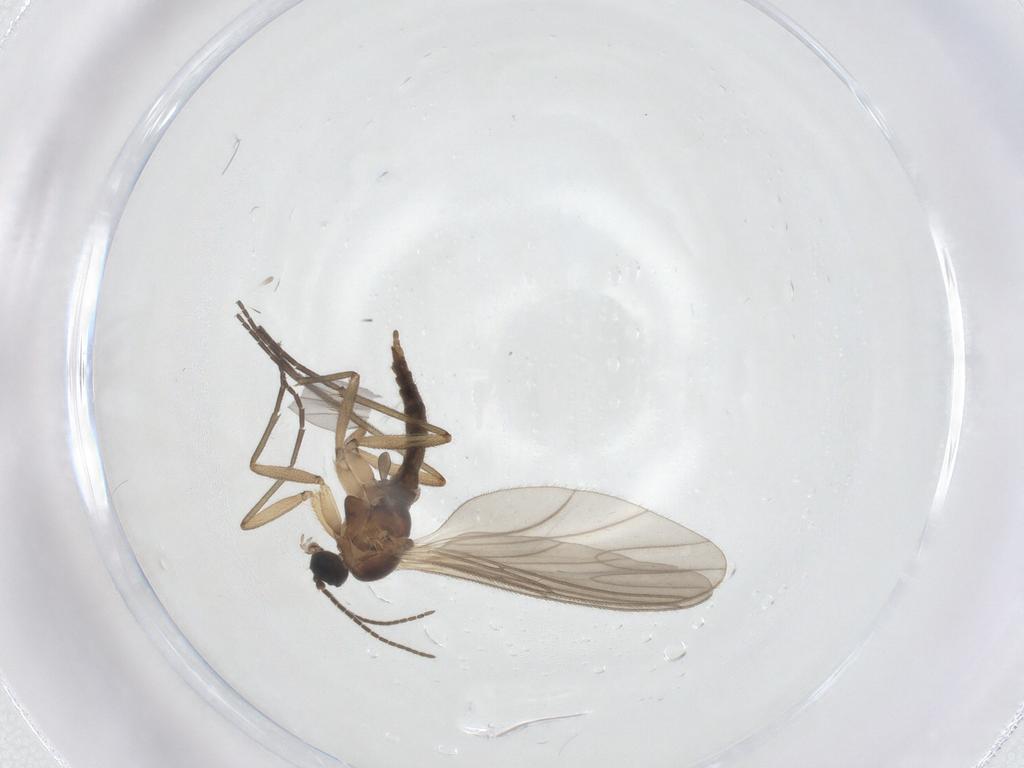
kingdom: Animalia
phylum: Arthropoda
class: Insecta
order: Diptera
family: Sciaridae
